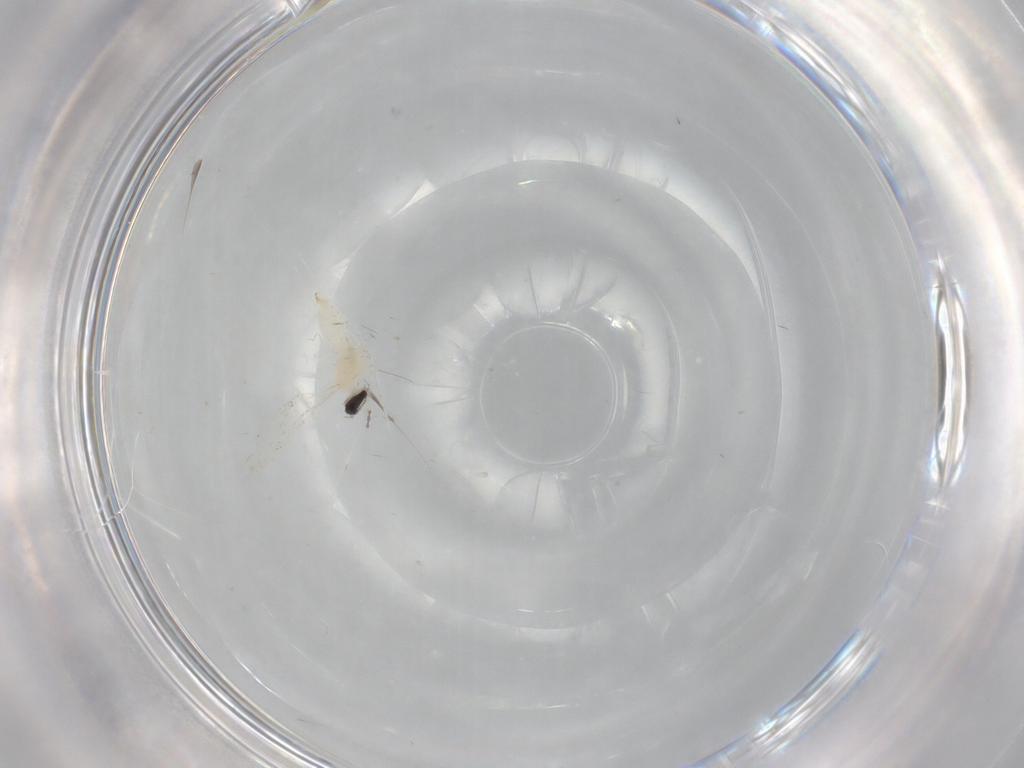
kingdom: Animalia
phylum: Arthropoda
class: Insecta
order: Diptera
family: Cecidomyiidae
